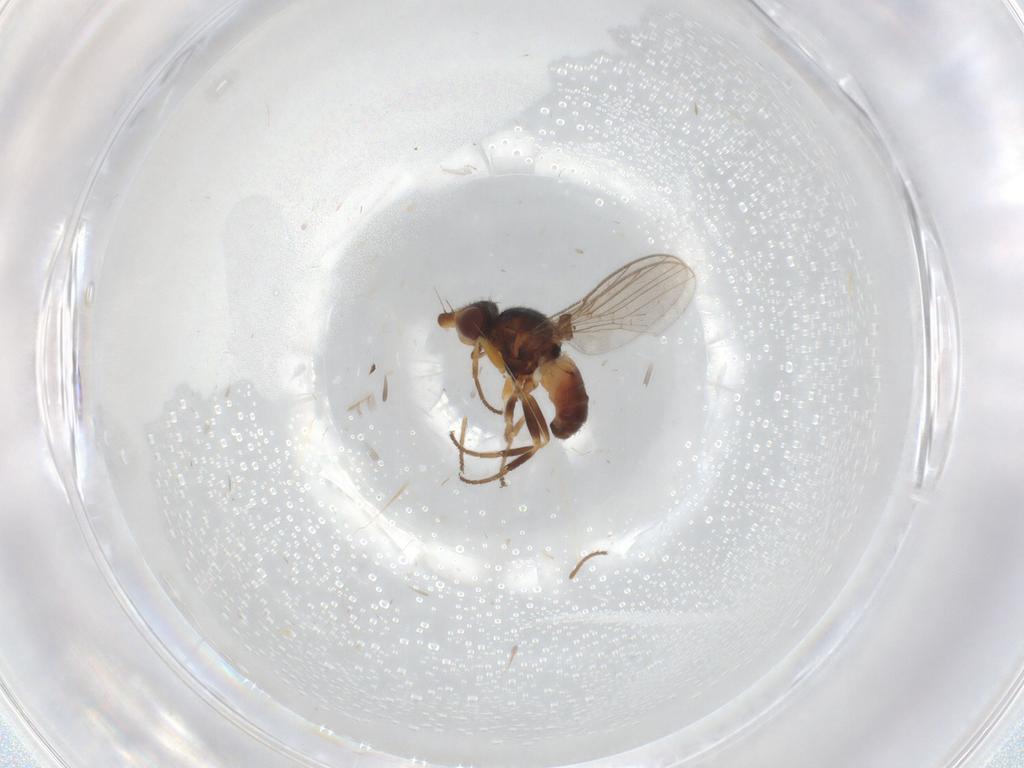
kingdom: Animalia
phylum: Arthropoda
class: Insecta
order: Diptera
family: Chloropidae
